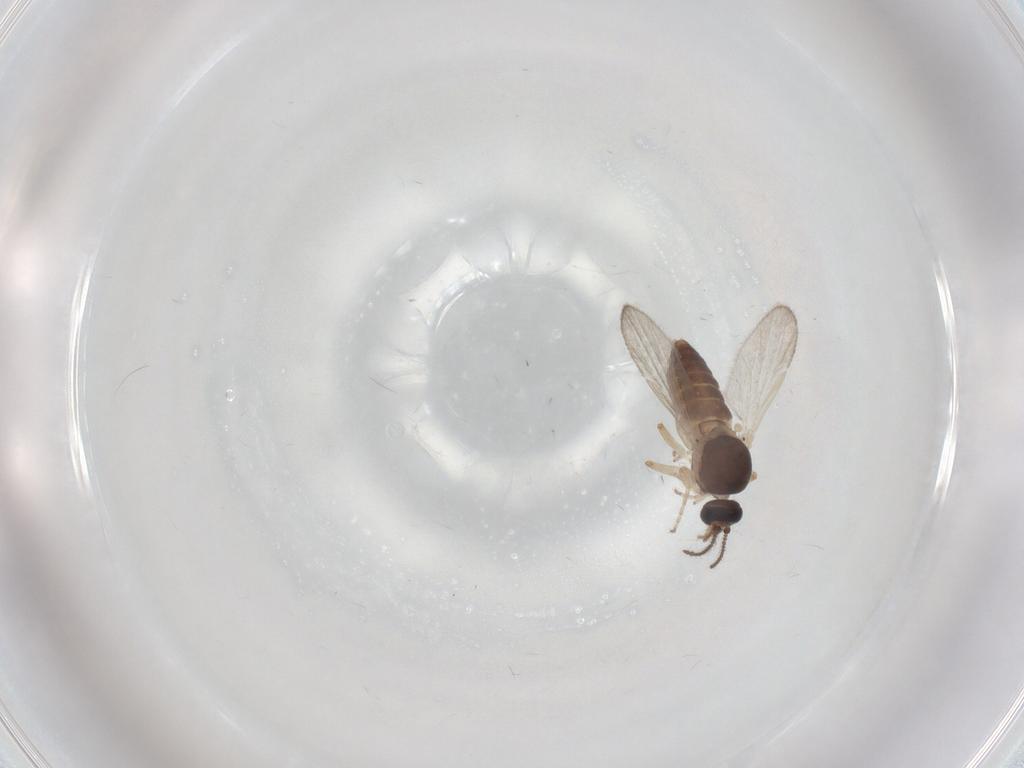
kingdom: Animalia
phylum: Arthropoda
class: Insecta
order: Diptera
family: Ceratopogonidae
